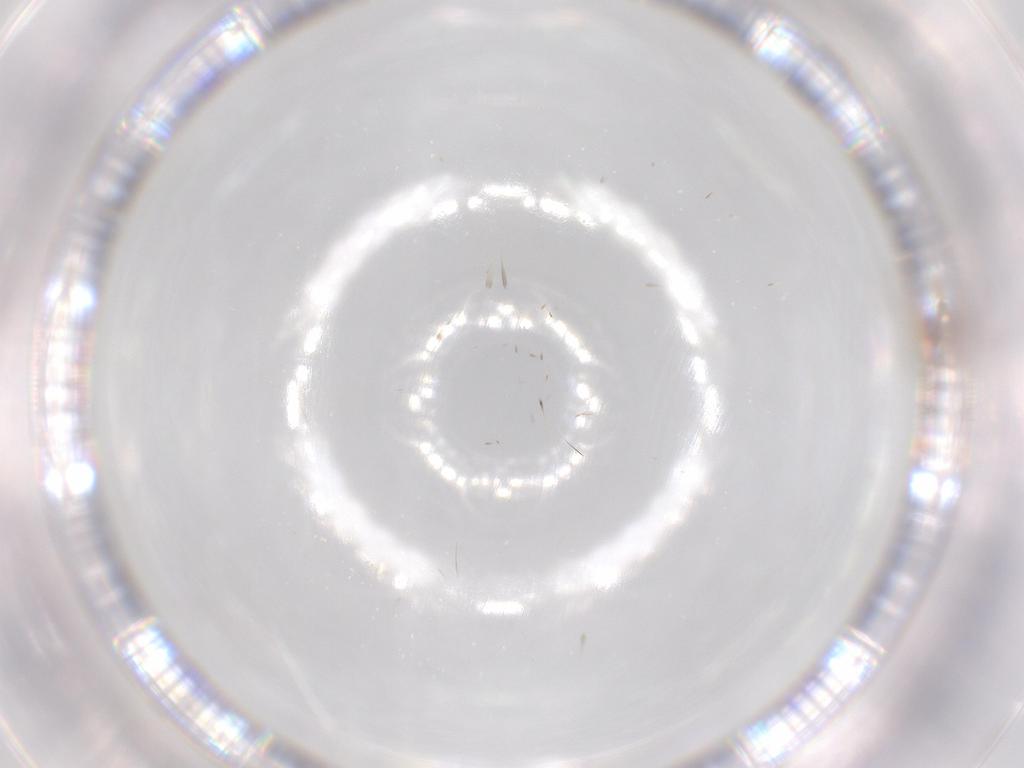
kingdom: Animalia
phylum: Arthropoda
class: Insecta
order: Diptera
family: Chironomidae
